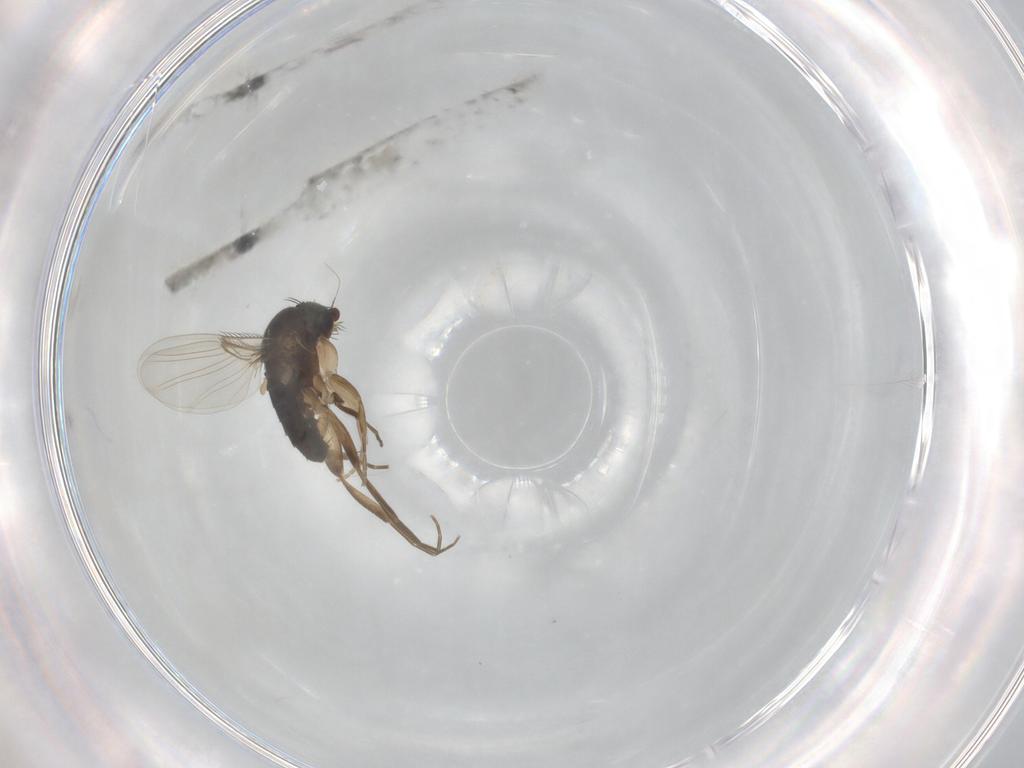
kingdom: Animalia
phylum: Arthropoda
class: Insecta
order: Diptera
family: Phoridae
